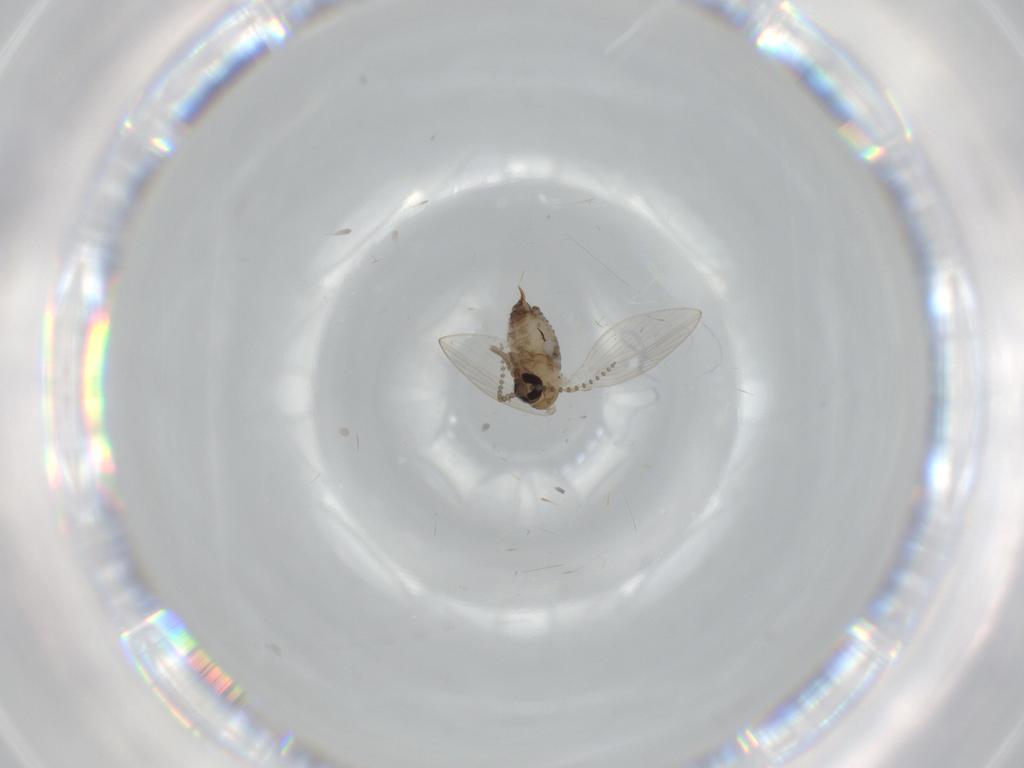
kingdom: Animalia
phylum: Arthropoda
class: Insecta
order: Diptera
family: Psychodidae
